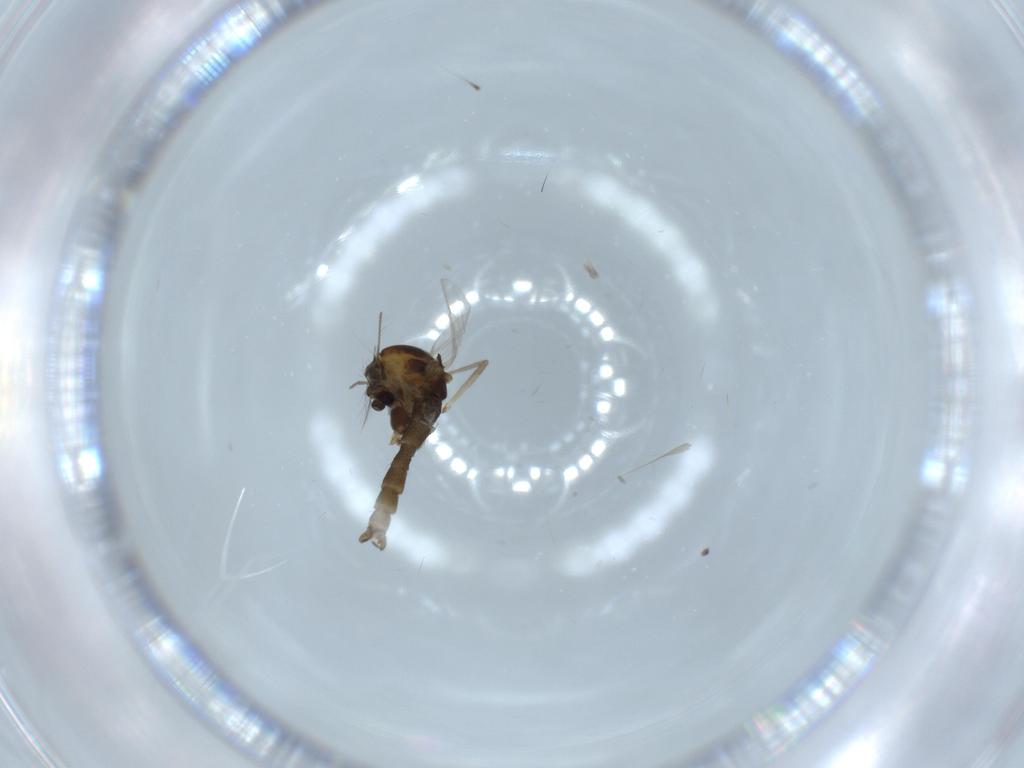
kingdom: Animalia
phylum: Arthropoda
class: Insecta
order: Diptera
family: Chironomidae
